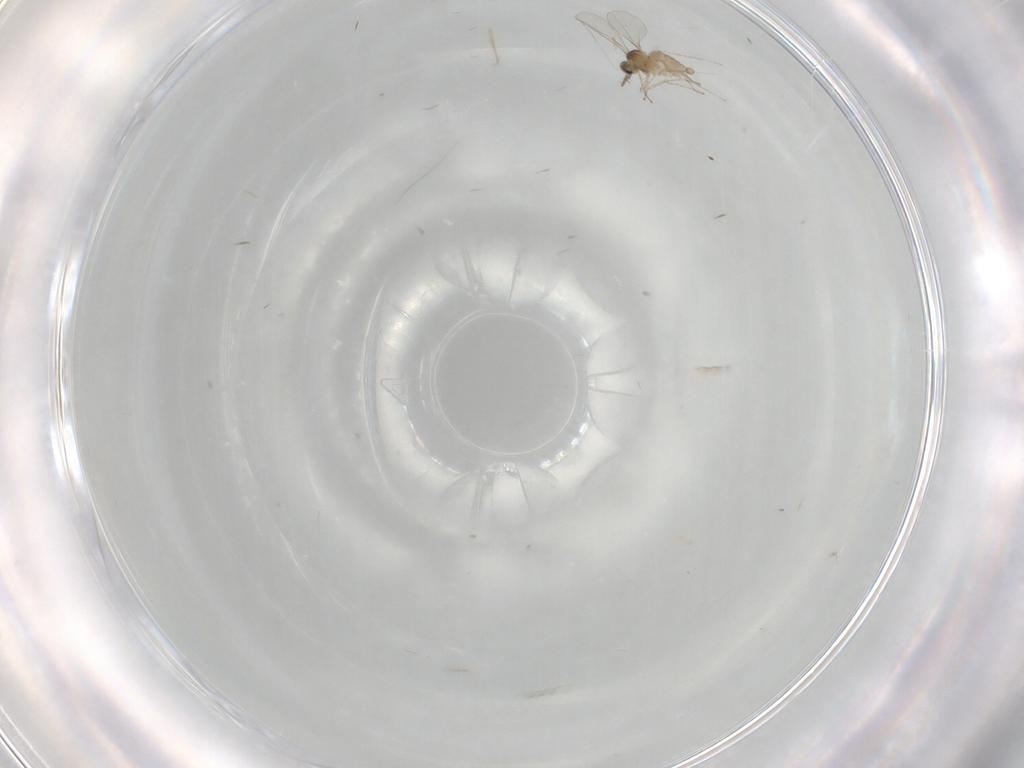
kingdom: Animalia
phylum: Arthropoda
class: Insecta
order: Diptera
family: Cecidomyiidae
